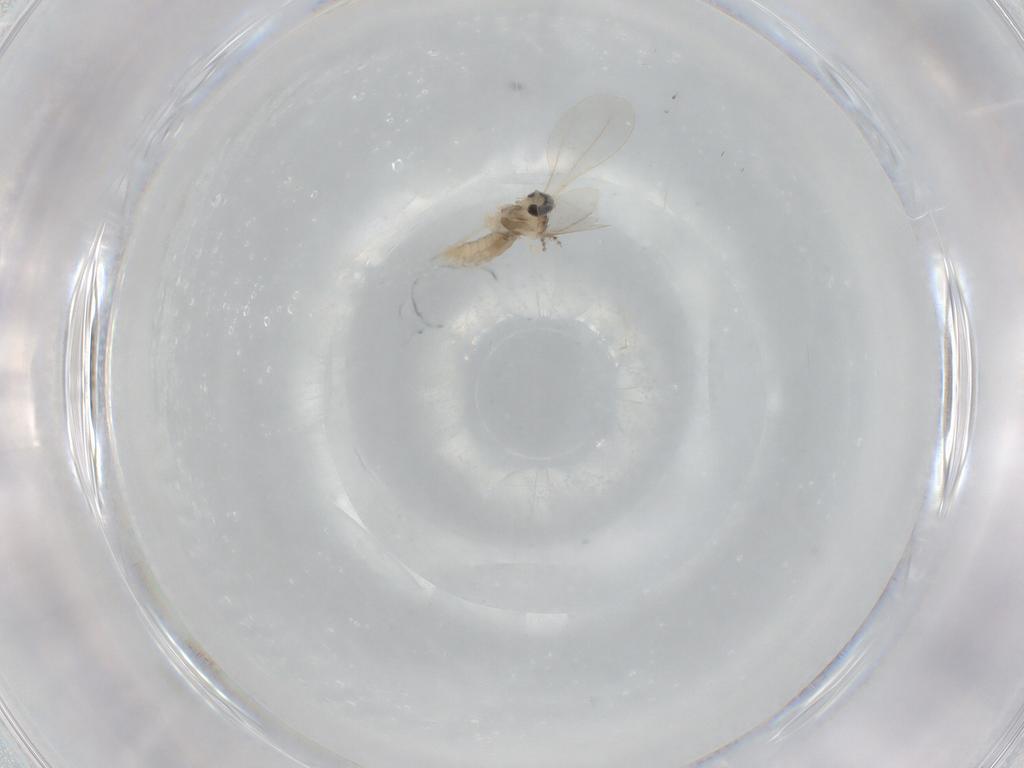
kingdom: Animalia
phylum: Arthropoda
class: Insecta
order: Diptera
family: Cecidomyiidae
